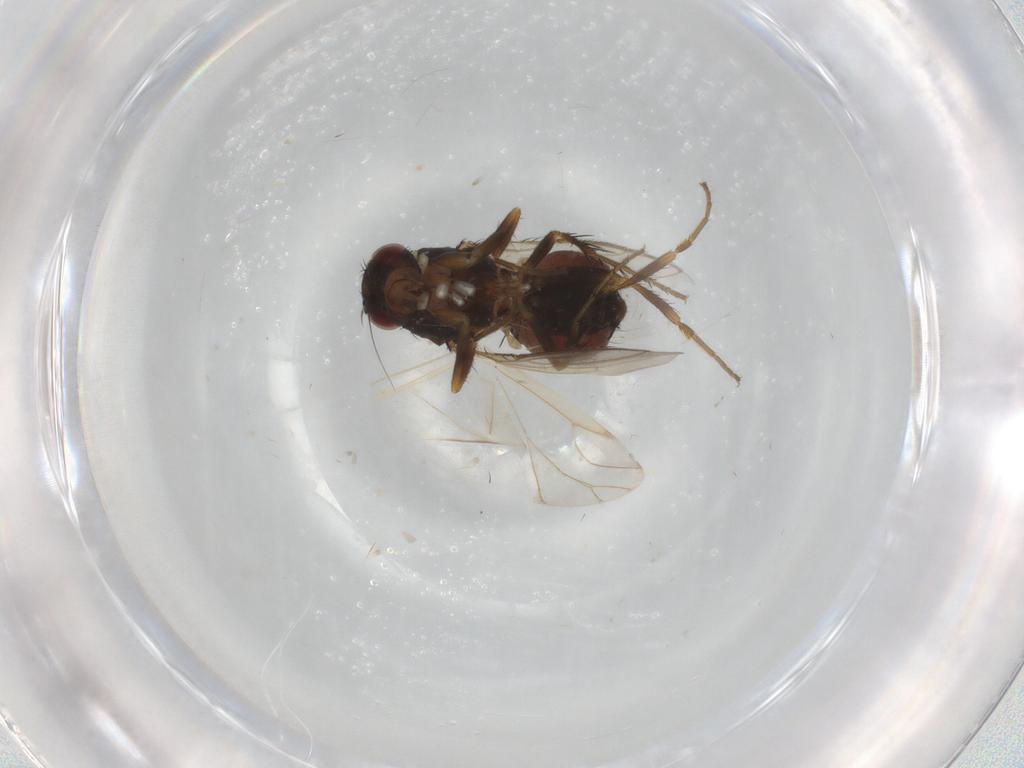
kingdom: Animalia
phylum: Arthropoda
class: Insecta
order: Diptera
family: Sphaeroceridae
